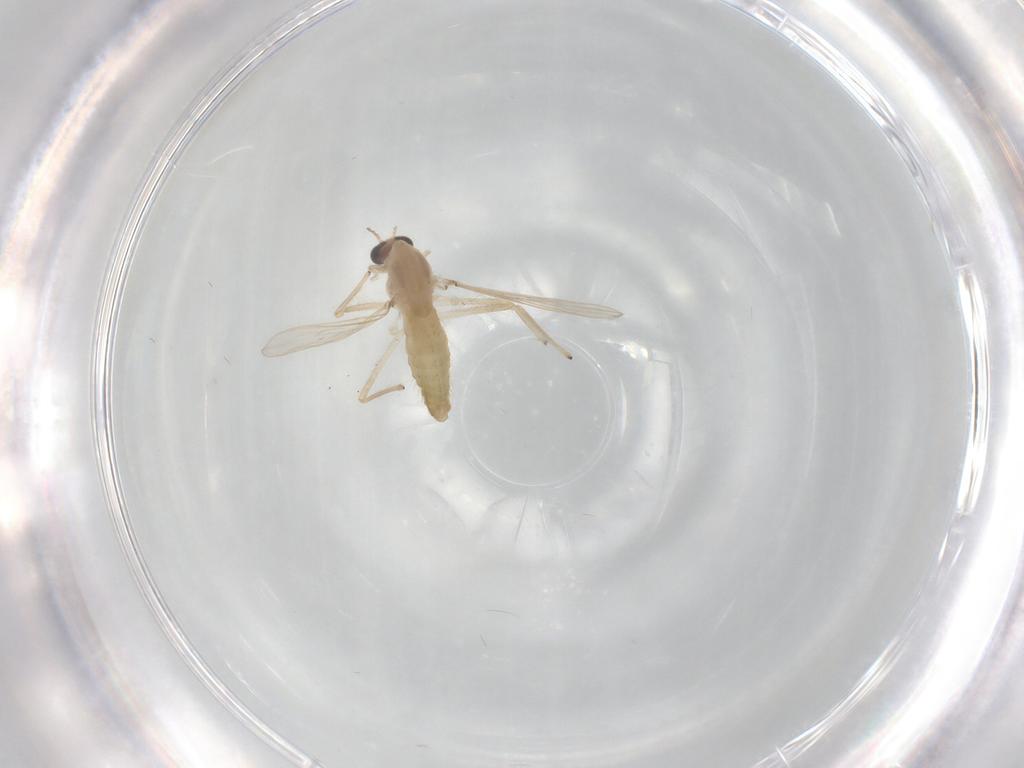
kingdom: Animalia
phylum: Arthropoda
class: Insecta
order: Diptera
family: Chironomidae
